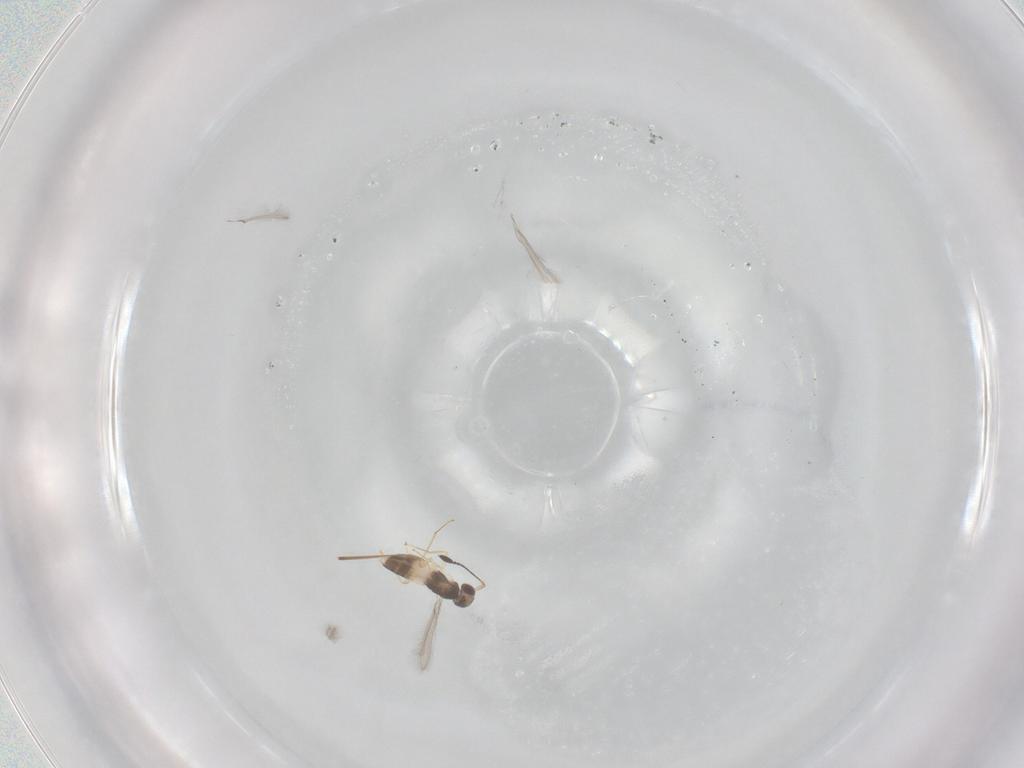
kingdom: Animalia
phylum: Arthropoda
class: Insecta
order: Hymenoptera
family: Mymaridae
